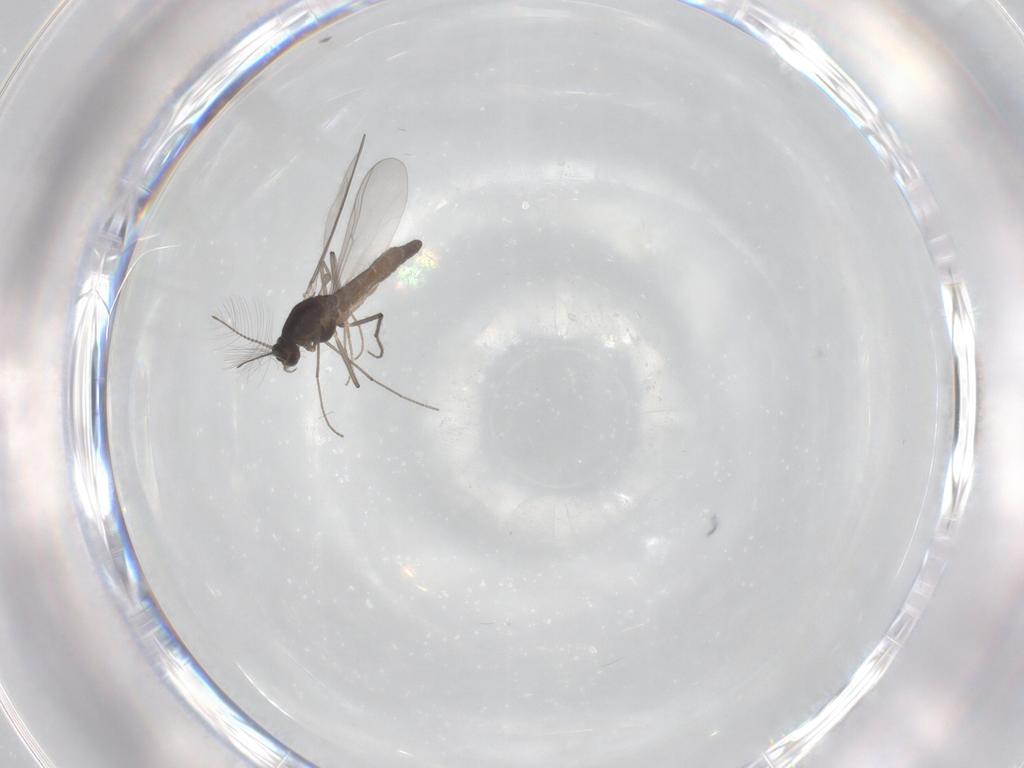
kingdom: Animalia
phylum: Arthropoda
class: Insecta
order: Diptera
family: Chironomidae
